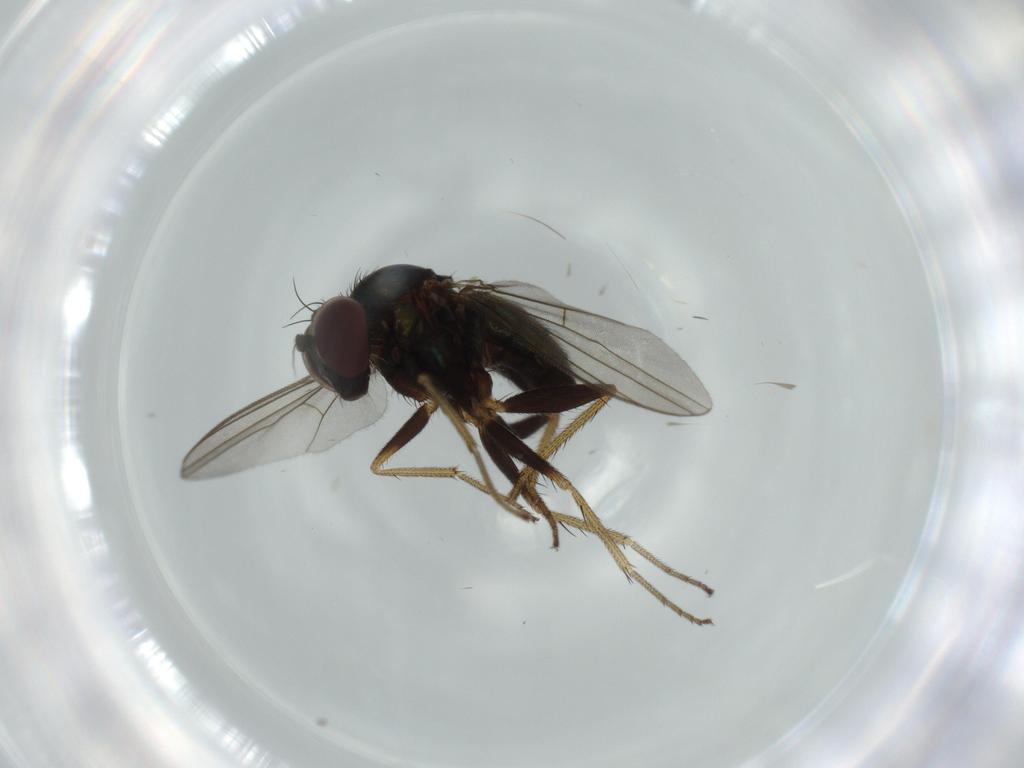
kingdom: Animalia
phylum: Arthropoda
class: Insecta
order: Diptera
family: Dolichopodidae
